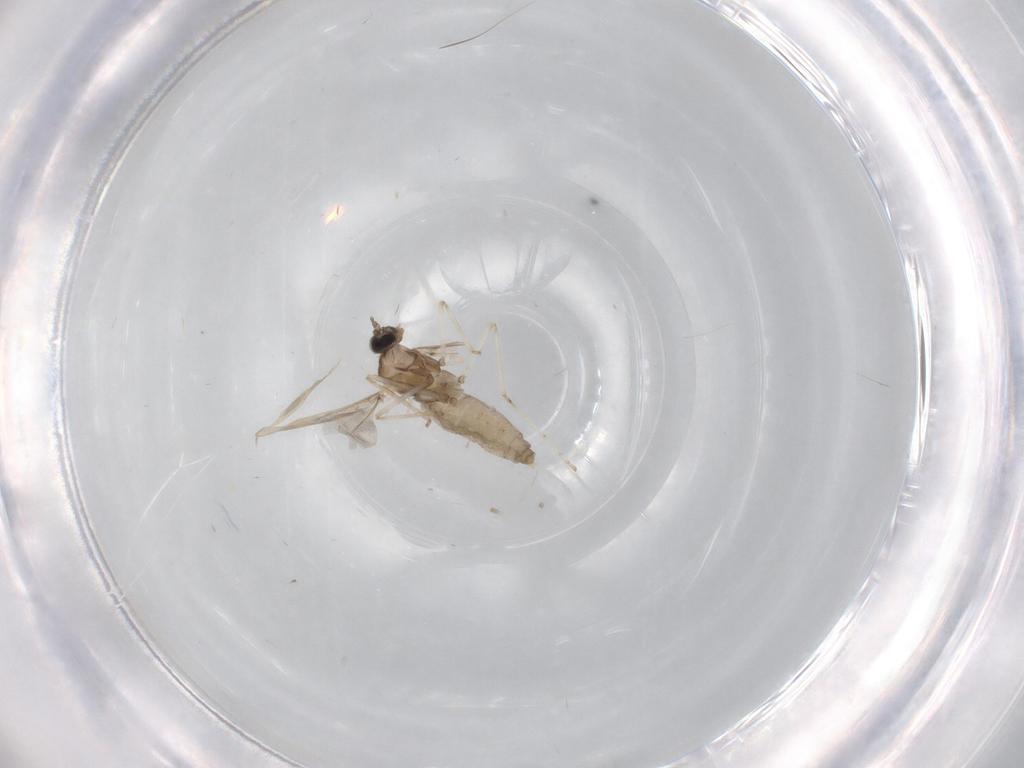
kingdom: Animalia
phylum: Arthropoda
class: Insecta
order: Diptera
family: Cecidomyiidae
